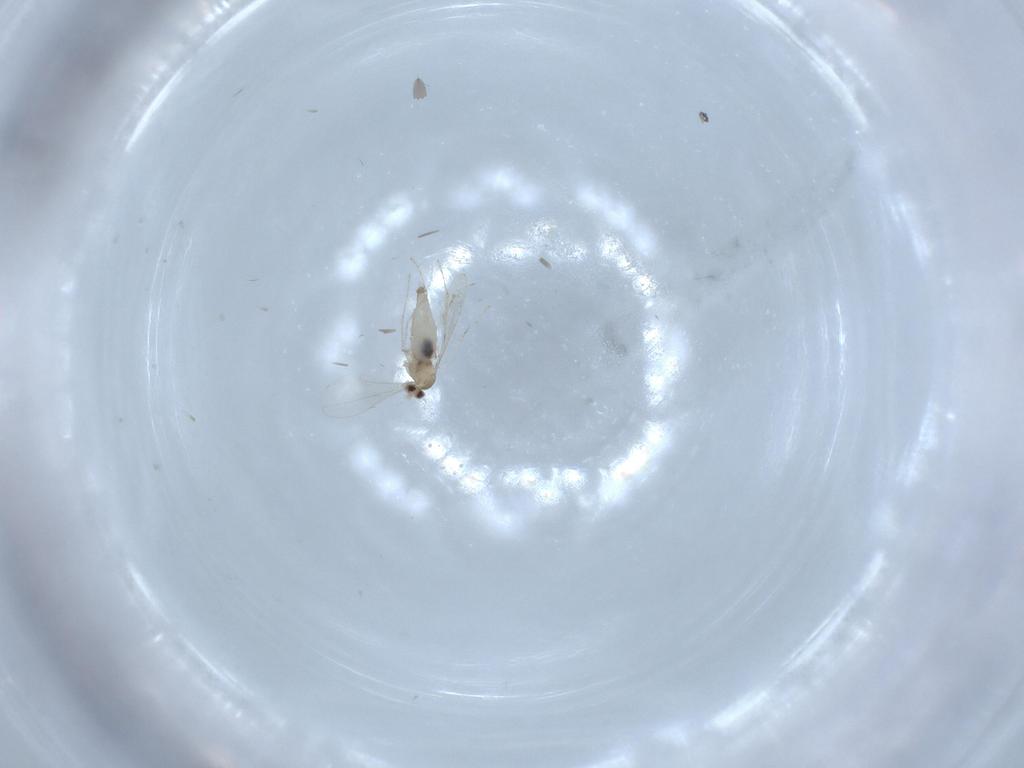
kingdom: Animalia
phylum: Arthropoda
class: Insecta
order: Diptera
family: Cecidomyiidae
